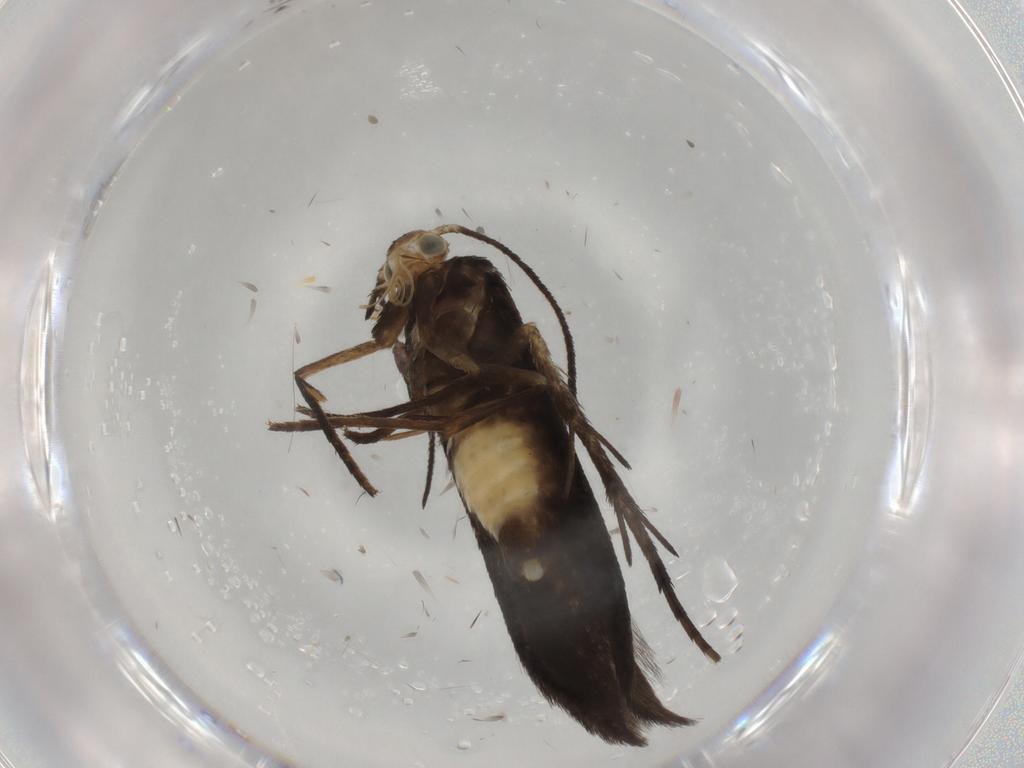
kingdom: Animalia
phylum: Arthropoda
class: Insecta
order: Lepidoptera
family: Schreckensteiniidae
